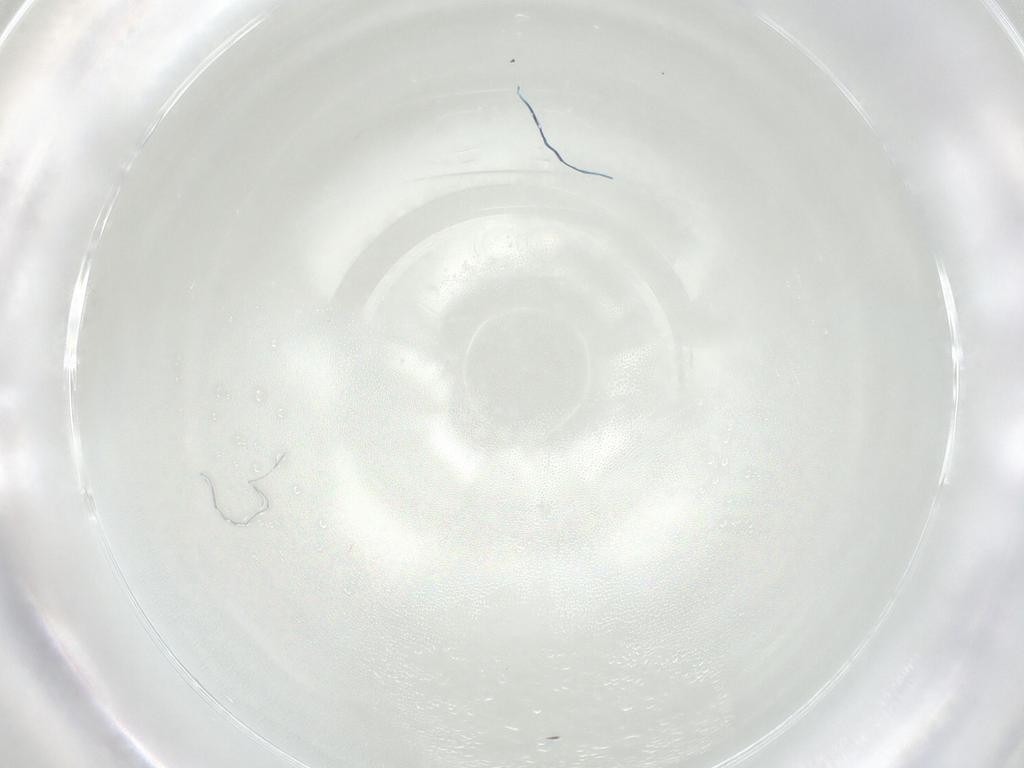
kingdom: Animalia
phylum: Arthropoda
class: Insecta
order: Hemiptera
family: Aleyrodidae
